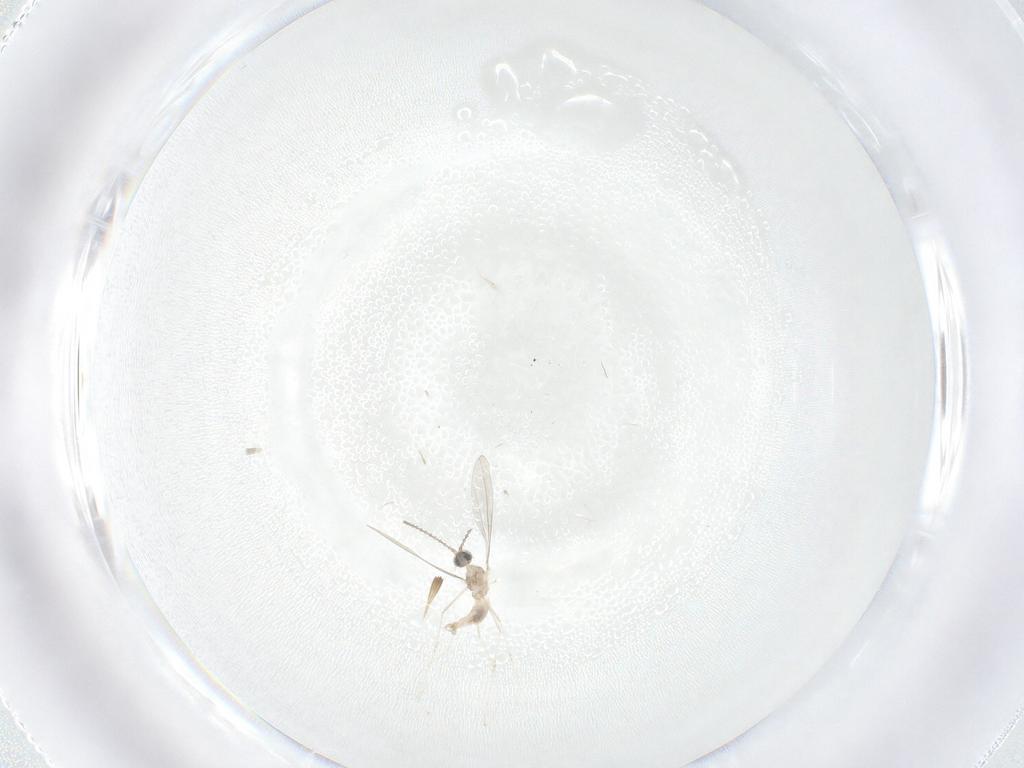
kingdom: Animalia
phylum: Arthropoda
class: Insecta
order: Diptera
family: Cecidomyiidae
